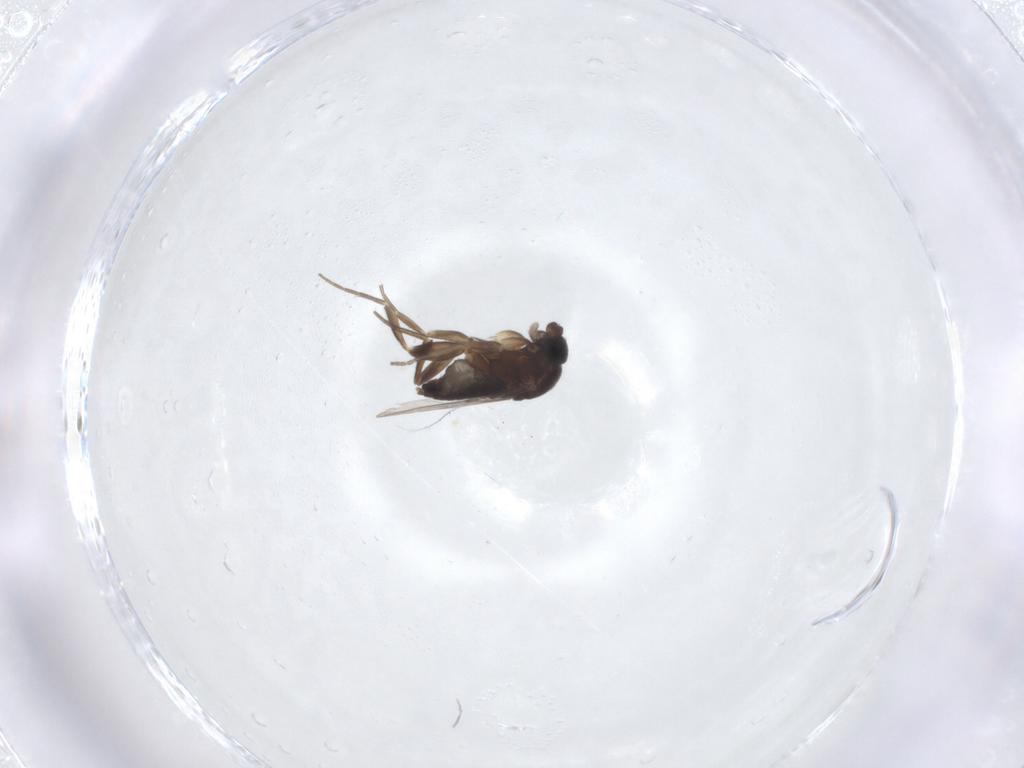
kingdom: Animalia
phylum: Arthropoda
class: Insecta
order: Diptera
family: Phoridae
